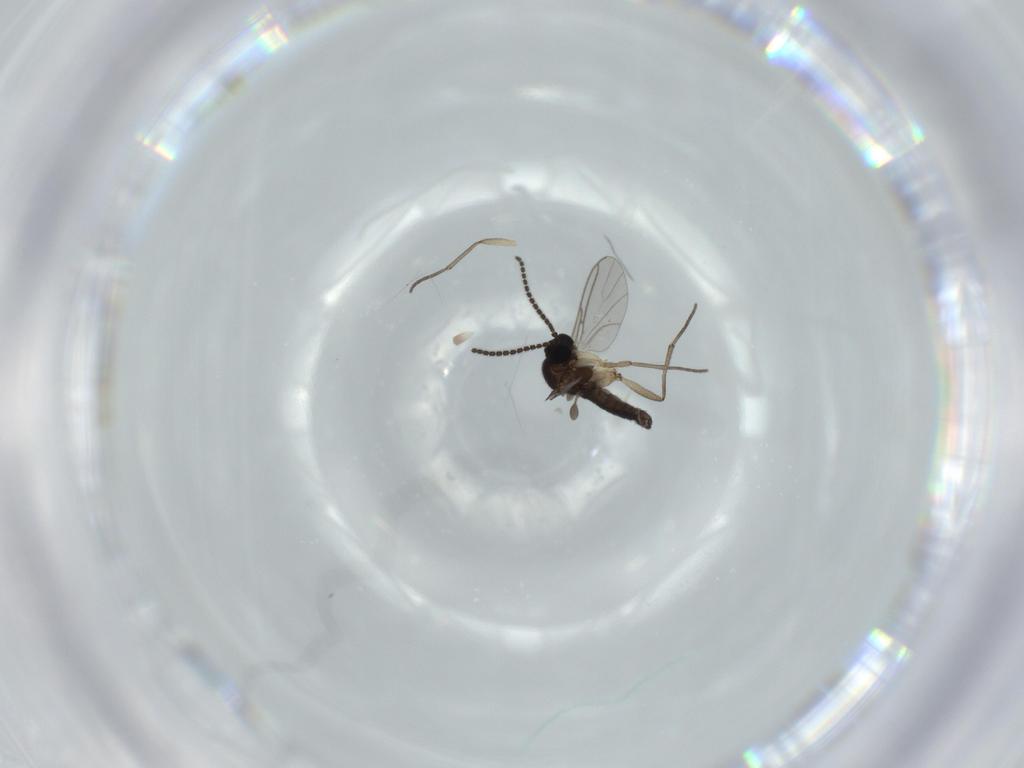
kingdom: Animalia
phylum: Arthropoda
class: Insecta
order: Diptera
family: Sciaridae
